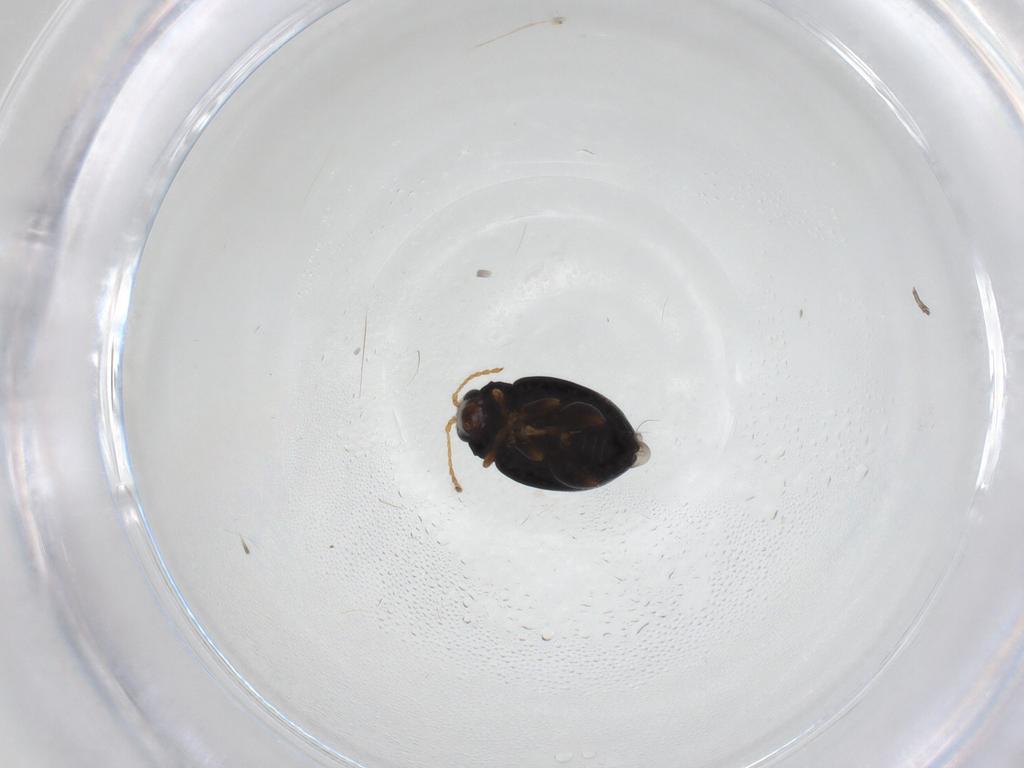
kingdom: Animalia
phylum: Arthropoda
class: Insecta
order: Coleoptera
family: Chrysomelidae
